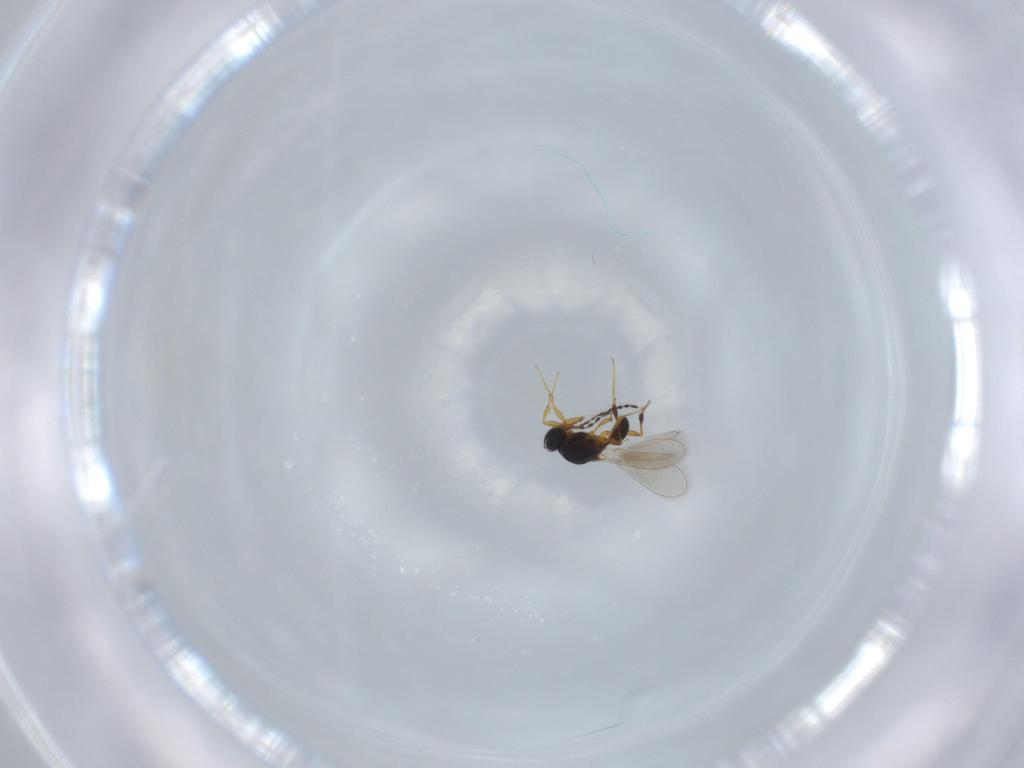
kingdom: Animalia
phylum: Arthropoda
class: Insecta
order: Hymenoptera
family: Platygastridae
